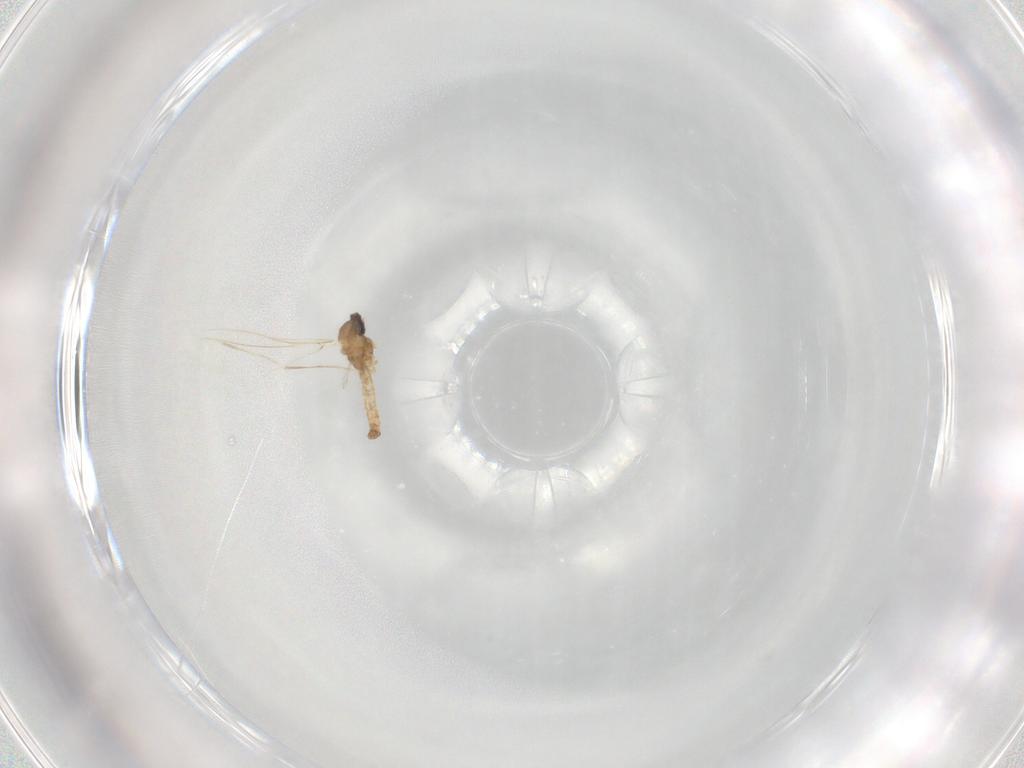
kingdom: Animalia
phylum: Arthropoda
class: Insecta
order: Diptera
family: Cecidomyiidae
